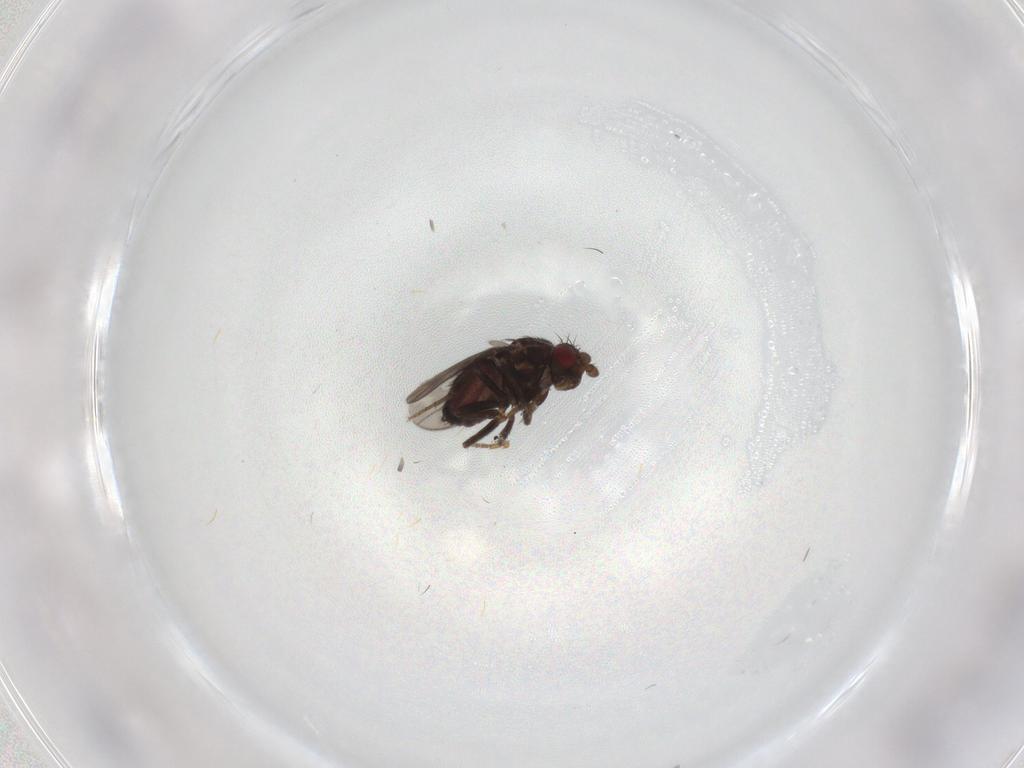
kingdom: Animalia
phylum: Arthropoda
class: Insecta
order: Diptera
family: Sphaeroceridae
